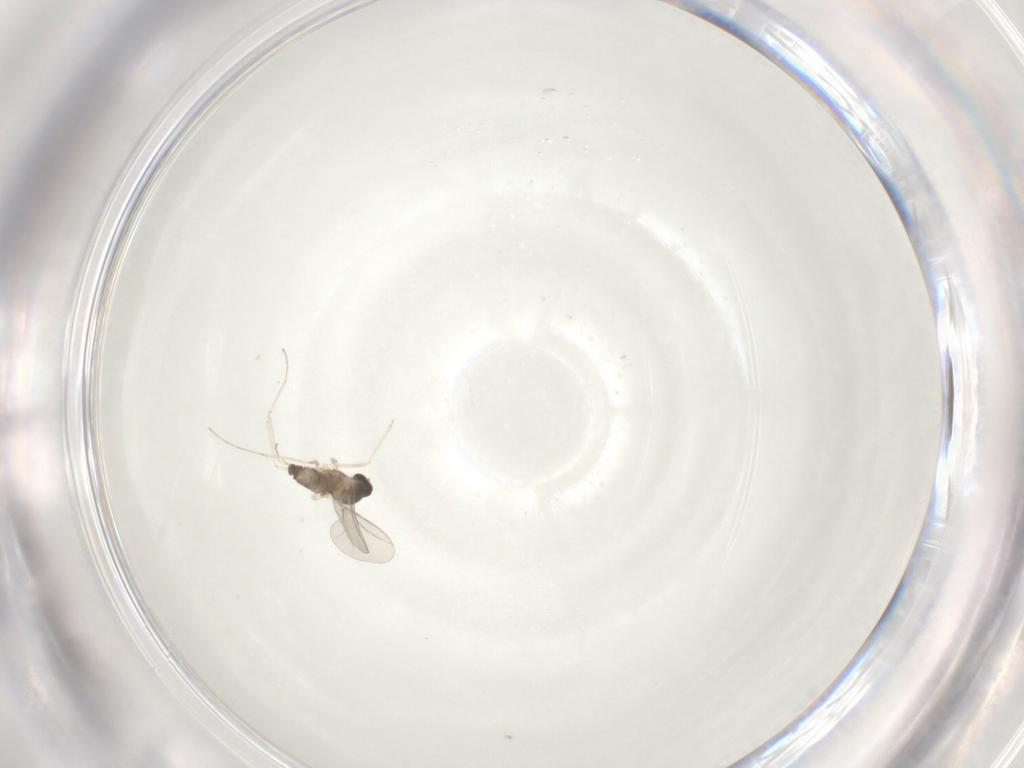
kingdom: Animalia
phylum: Arthropoda
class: Insecta
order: Diptera
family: Cecidomyiidae
